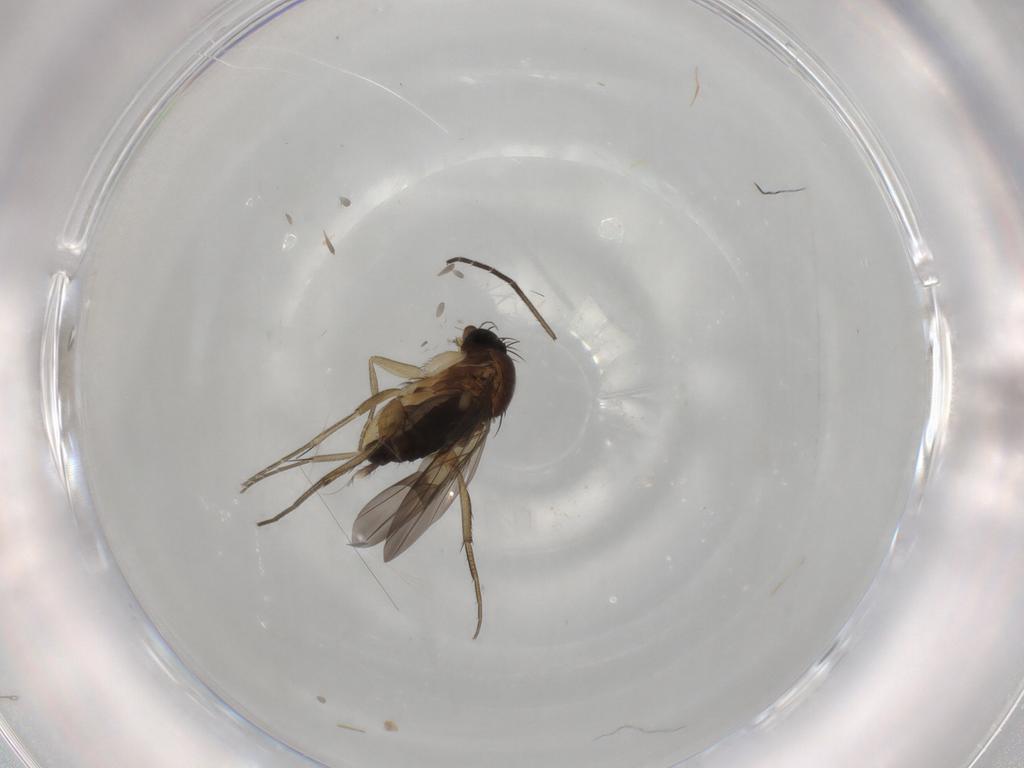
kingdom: Animalia
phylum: Arthropoda
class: Insecta
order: Diptera
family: Phoridae
